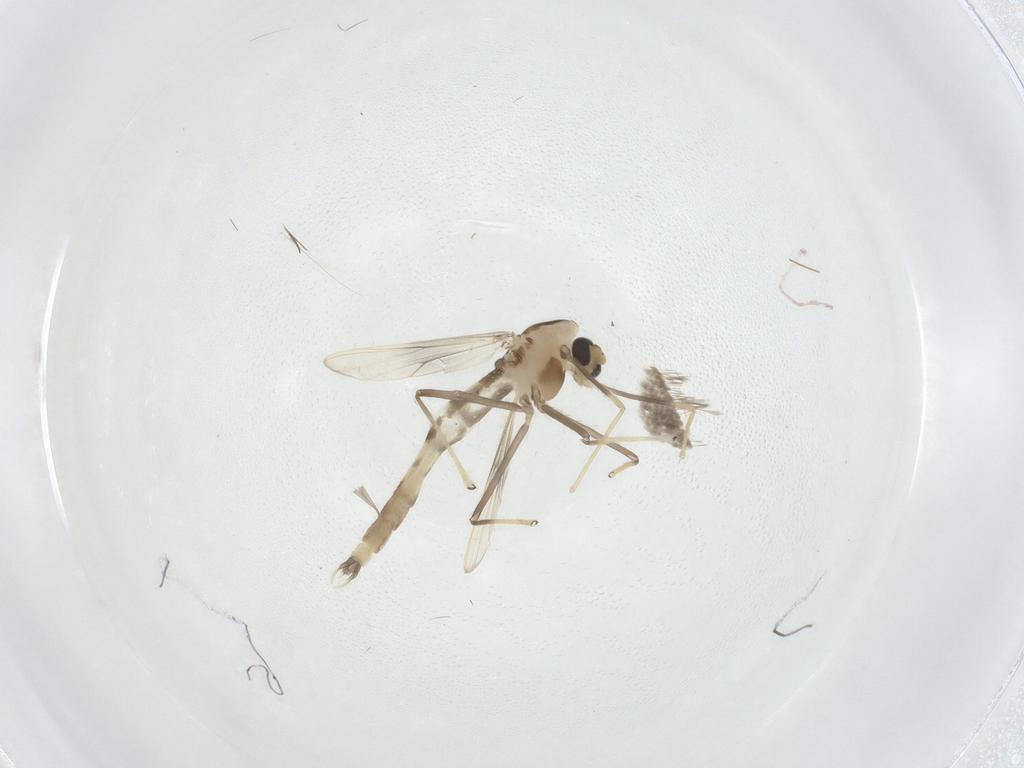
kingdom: Animalia
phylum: Arthropoda
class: Insecta
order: Diptera
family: Chironomidae
